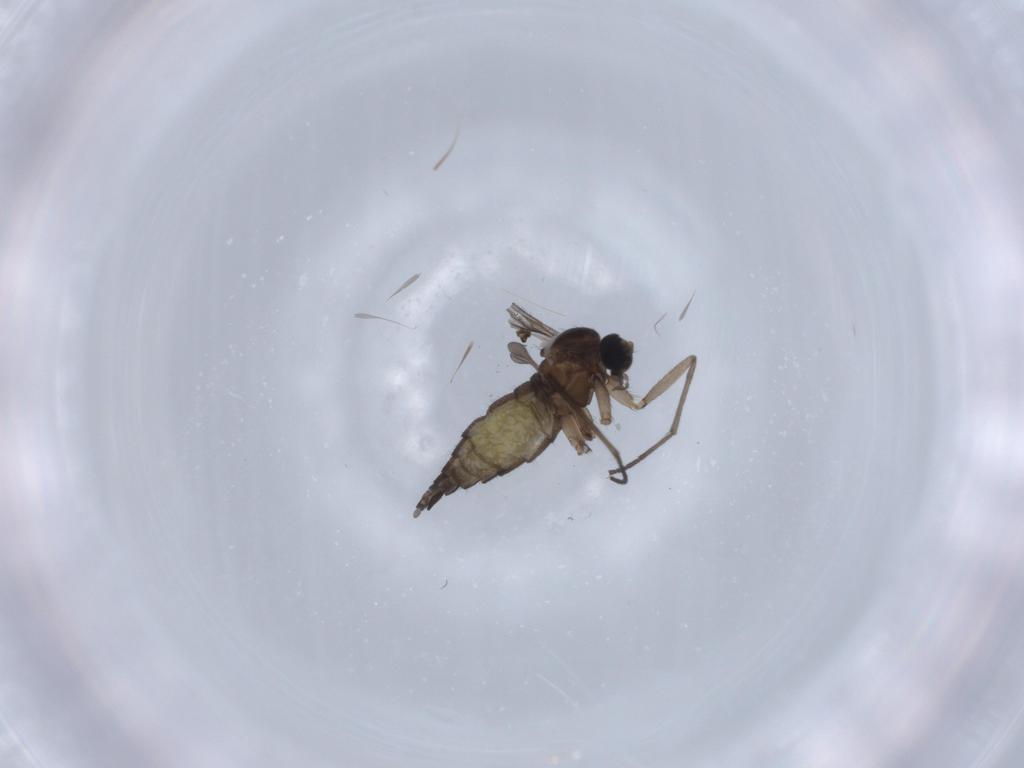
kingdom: Animalia
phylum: Arthropoda
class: Insecta
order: Diptera
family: Sciaridae
